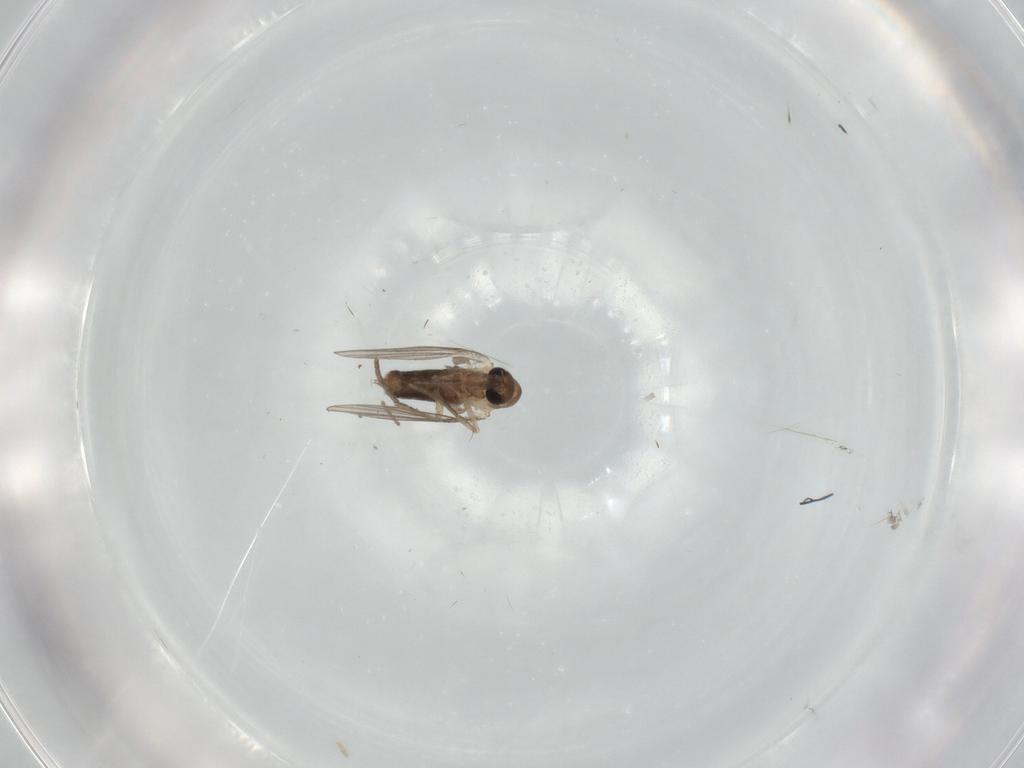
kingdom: Animalia
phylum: Arthropoda
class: Insecta
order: Diptera
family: Cecidomyiidae
